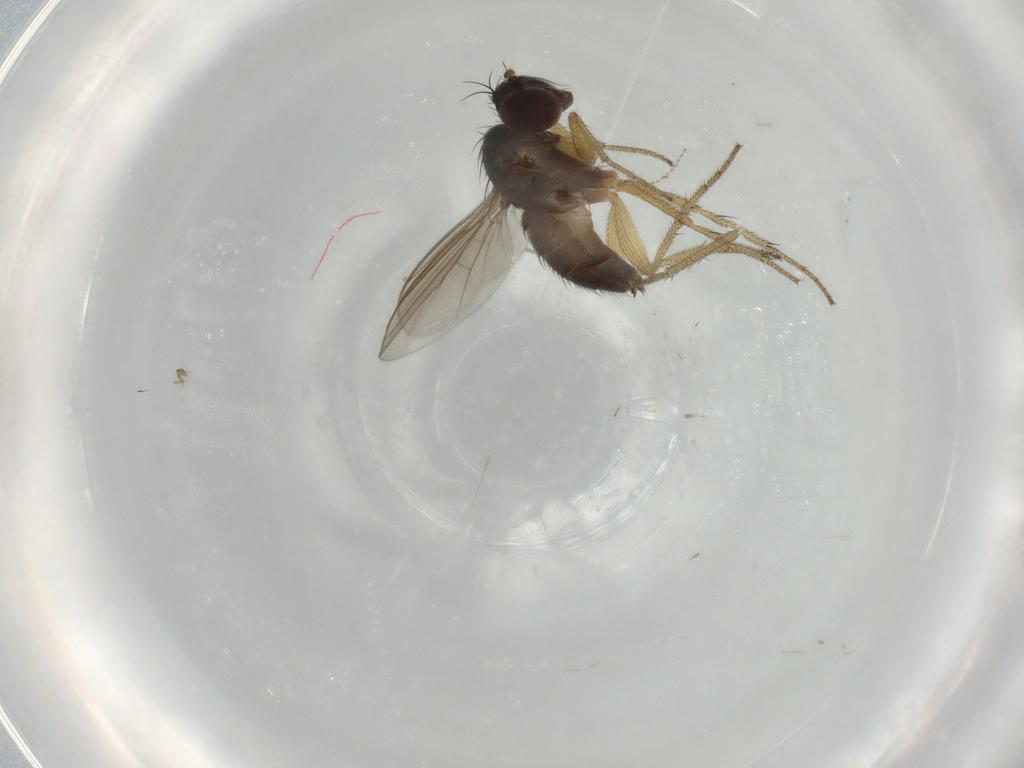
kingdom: Animalia
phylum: Arthropoda
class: Insecta
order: Diptera
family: Dolichopodidae
